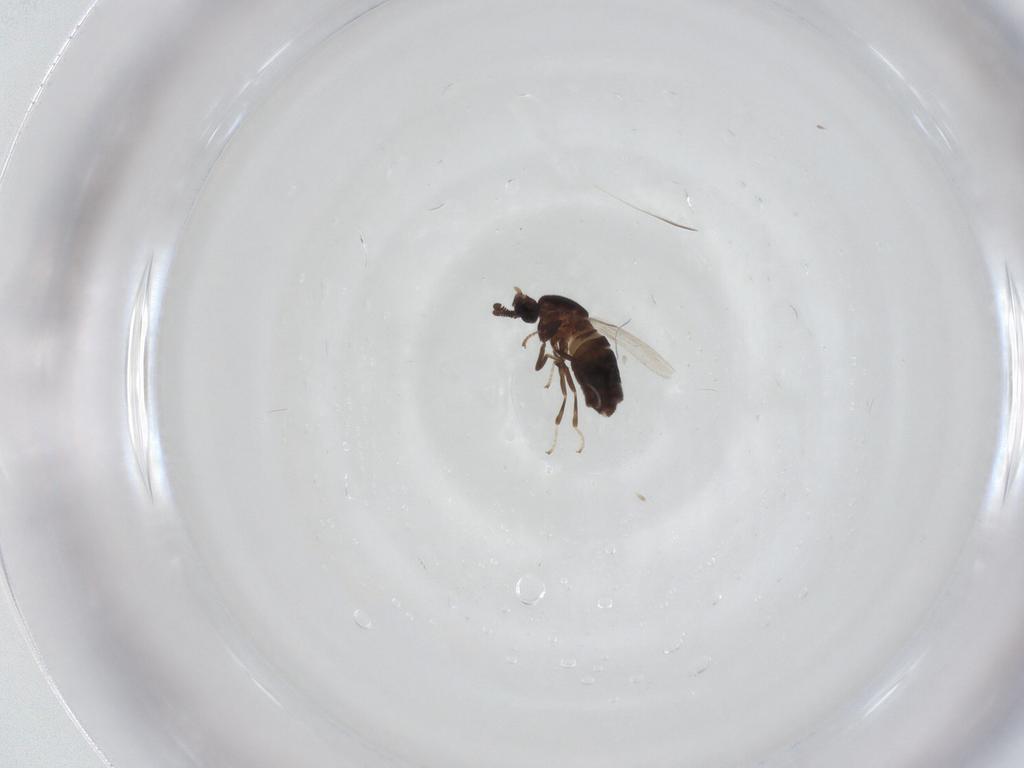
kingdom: Animalia
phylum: Arthropoda
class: Insecta
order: Diptera
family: Scatopsidae
